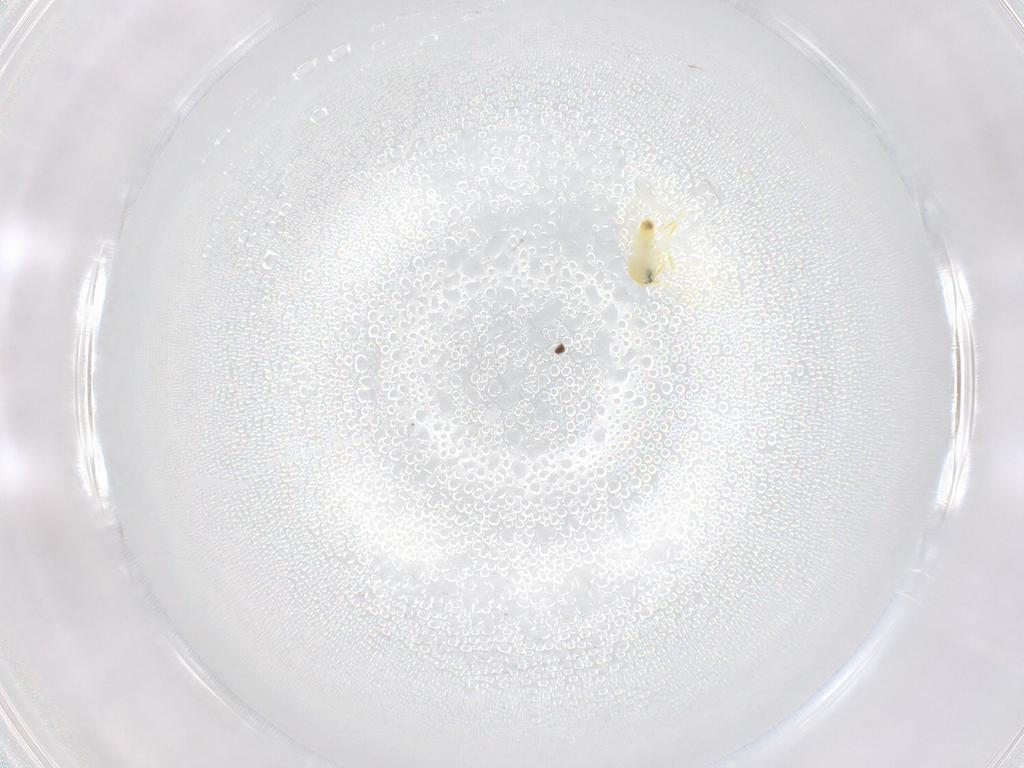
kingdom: Animalia
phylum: Arthropoda
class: Insecta
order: Hemiptera
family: Aleyrodidae
